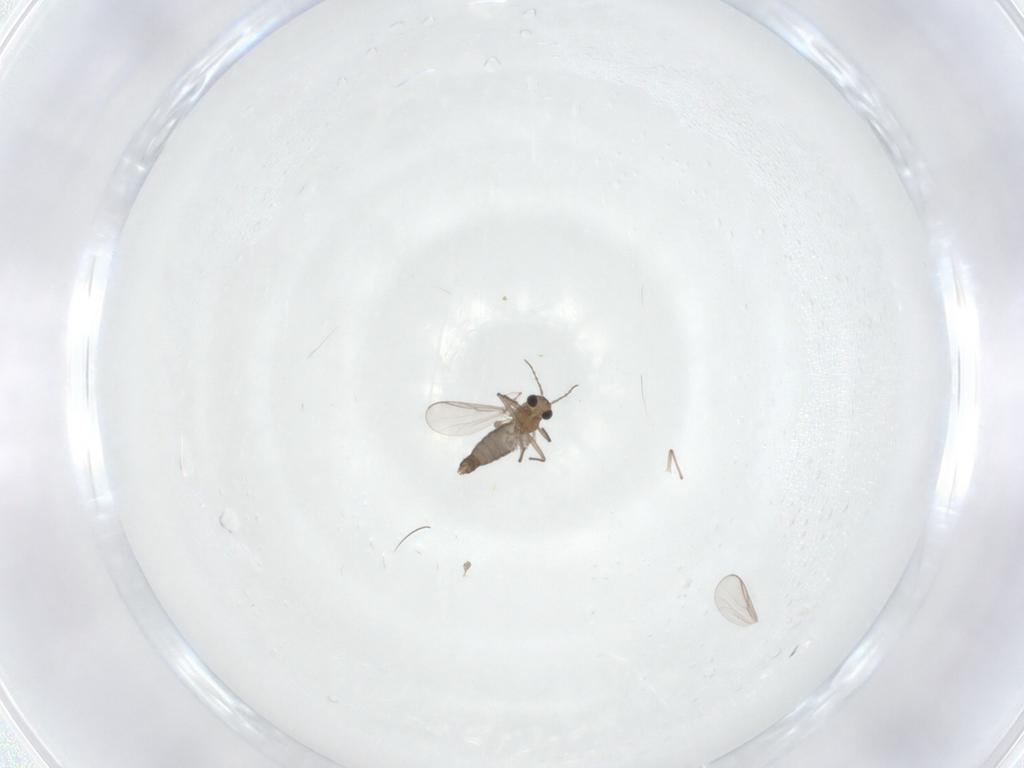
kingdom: Animalia
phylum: Arthropoda
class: Insecta
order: Diptera
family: Chironomidae
